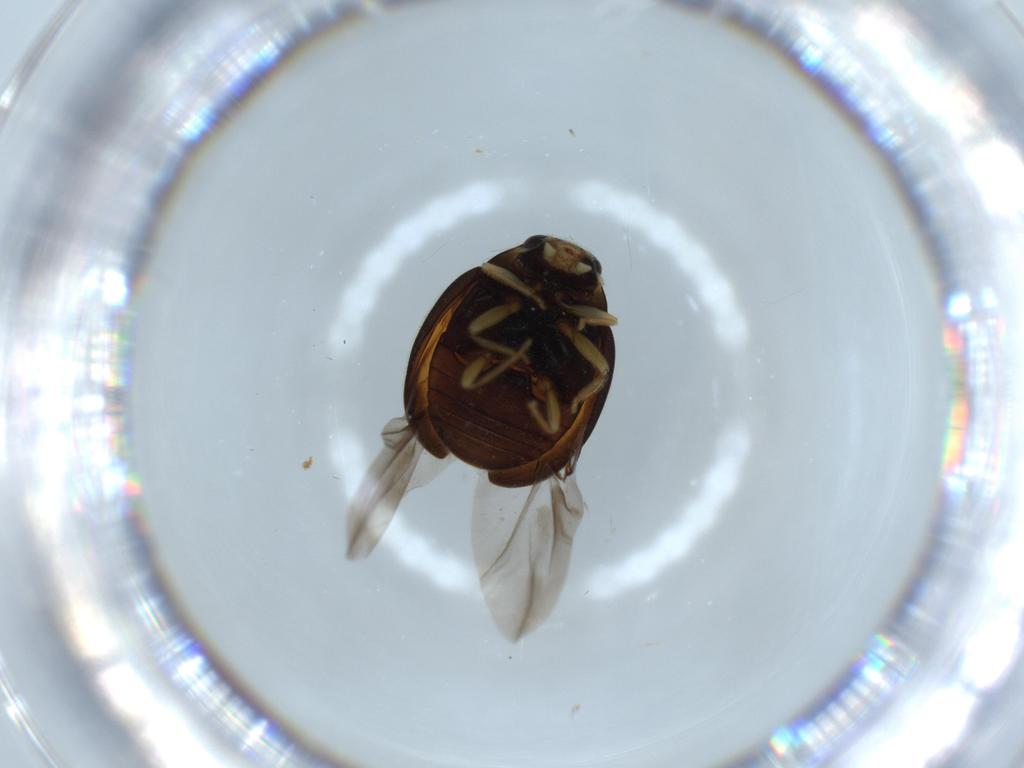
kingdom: Animalia
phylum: Arthropoda
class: Insecta
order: Coleoptera
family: Coccinellidae
